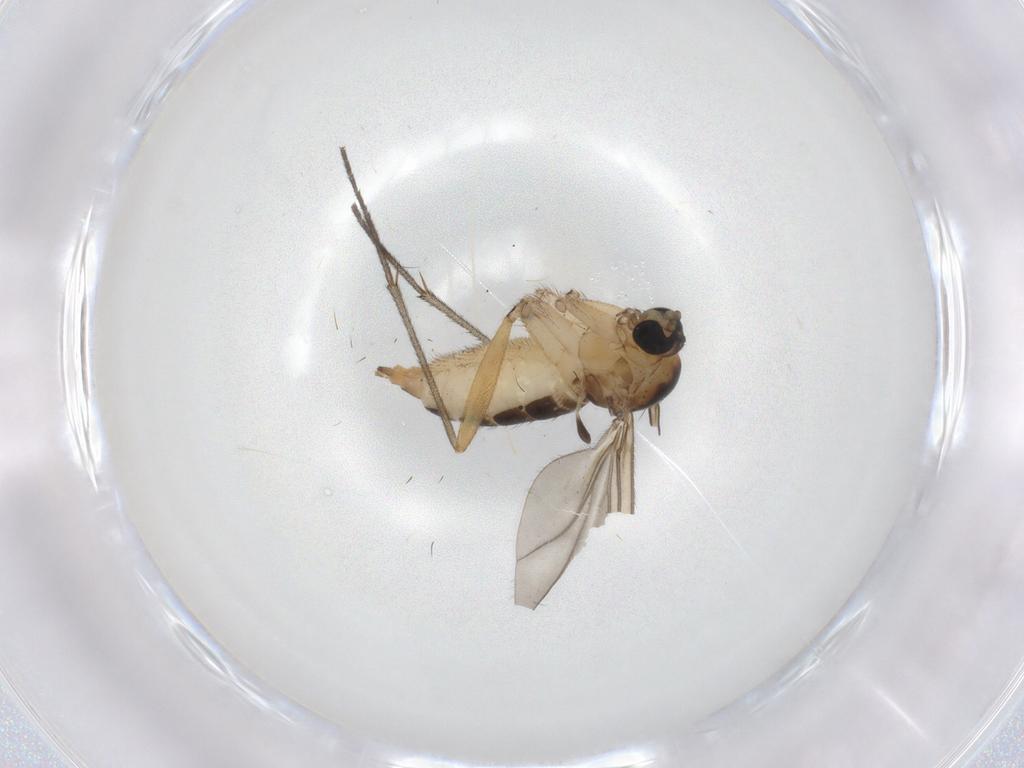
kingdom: Animalia
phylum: Arthropoda
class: Insecta
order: Diptera
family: Sciaridae
